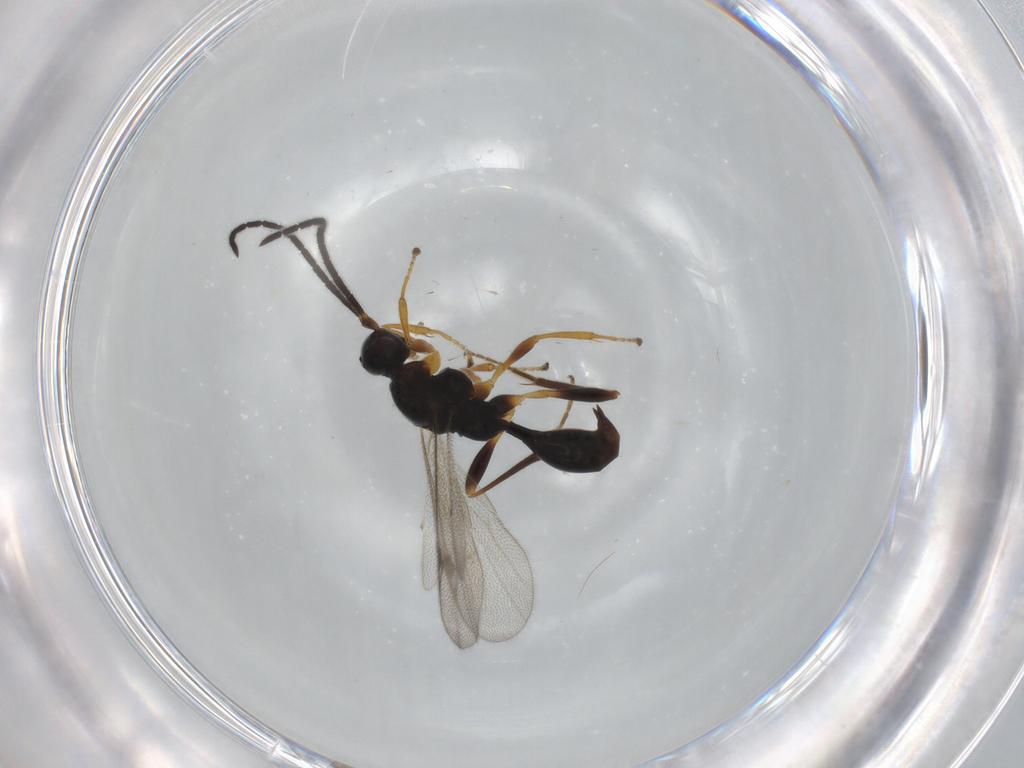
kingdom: Animalia
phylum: Arthropoda
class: Insecta
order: Hymenoptera
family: Proctotrupidae
